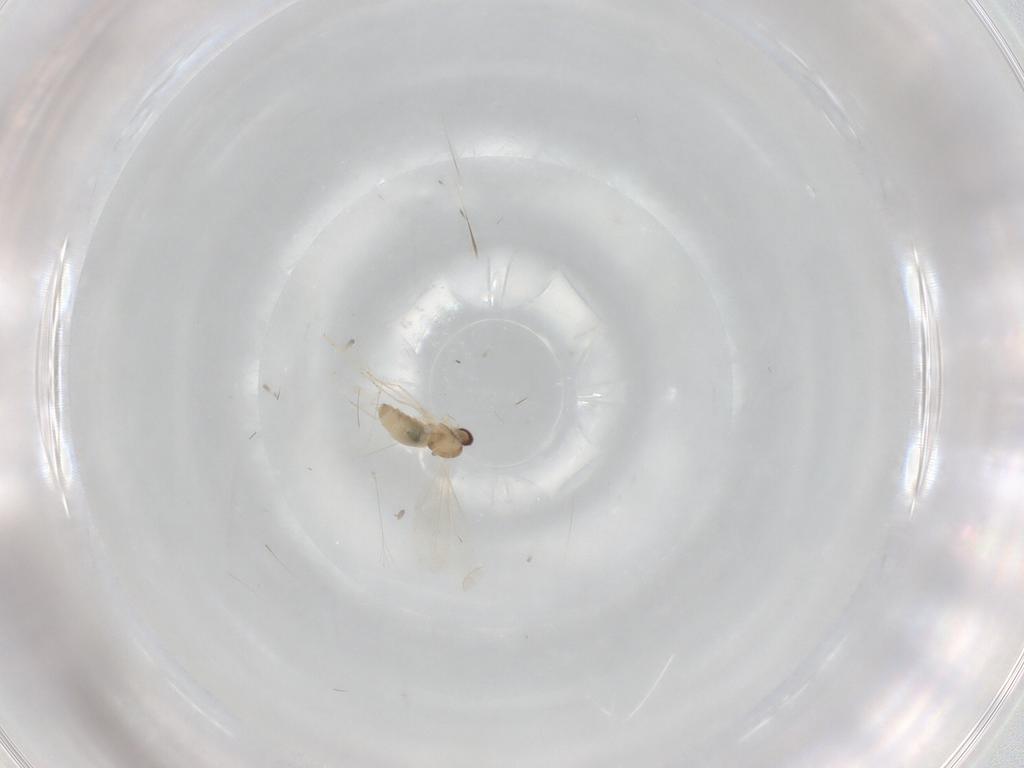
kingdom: Animalia
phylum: Arthropoda
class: Insecta
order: Diptera
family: Cecidomyiidae
